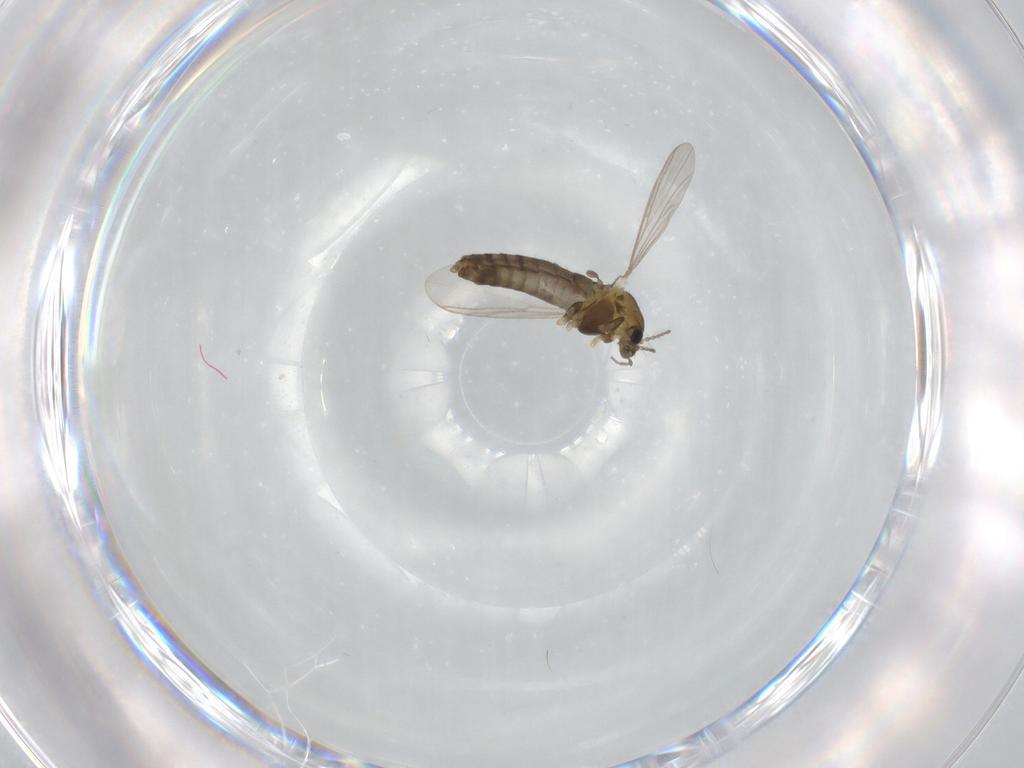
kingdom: Animalia
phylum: Arthropoda
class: Insecta
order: Diptera
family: Chironomidae
